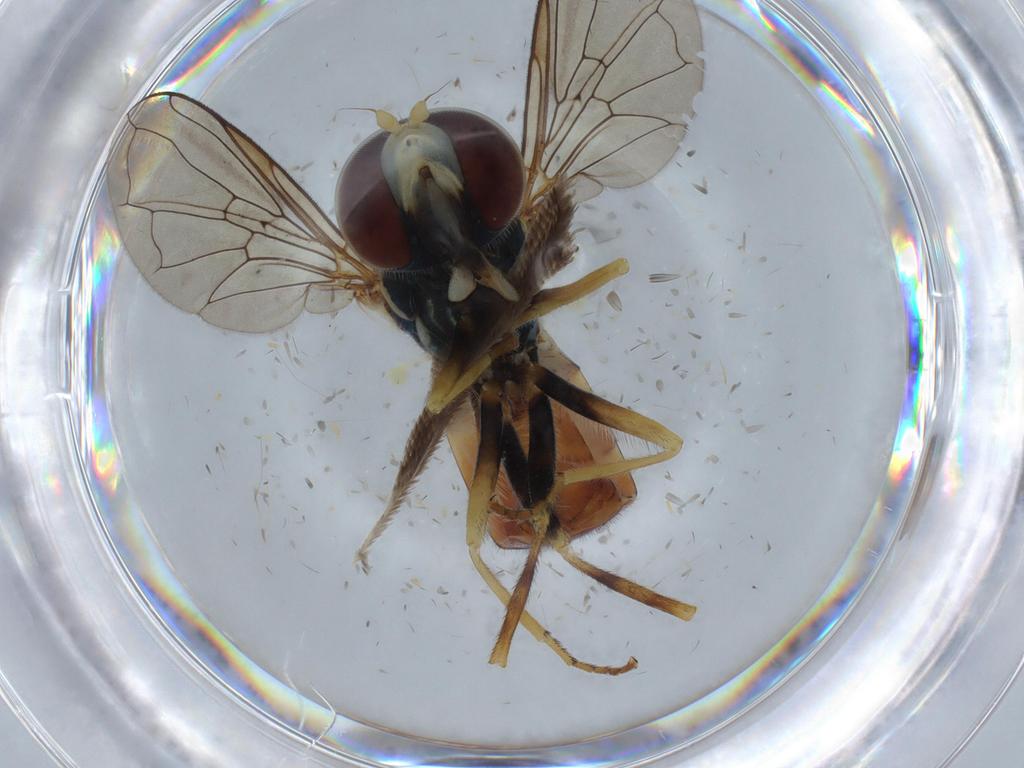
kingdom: Animalia
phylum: Arthropoda
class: Insecta
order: Diptera
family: Syrphidae
